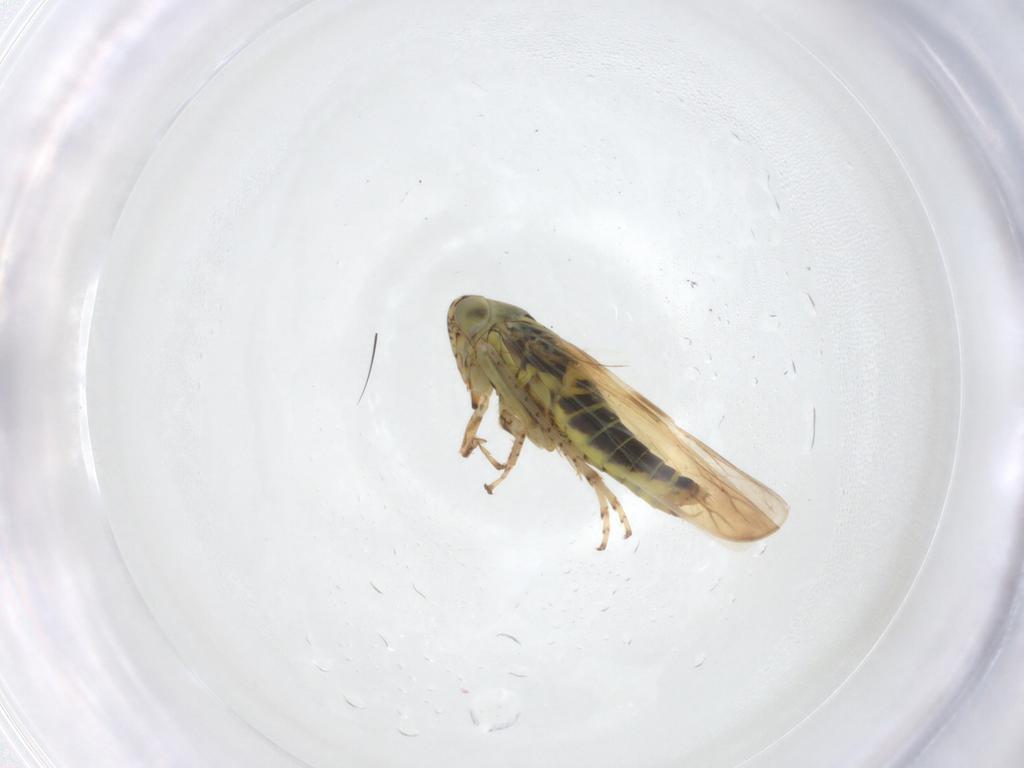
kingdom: Animalia
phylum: Arthropoda
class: Insecta
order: Hemiptera
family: Cicadellidae
